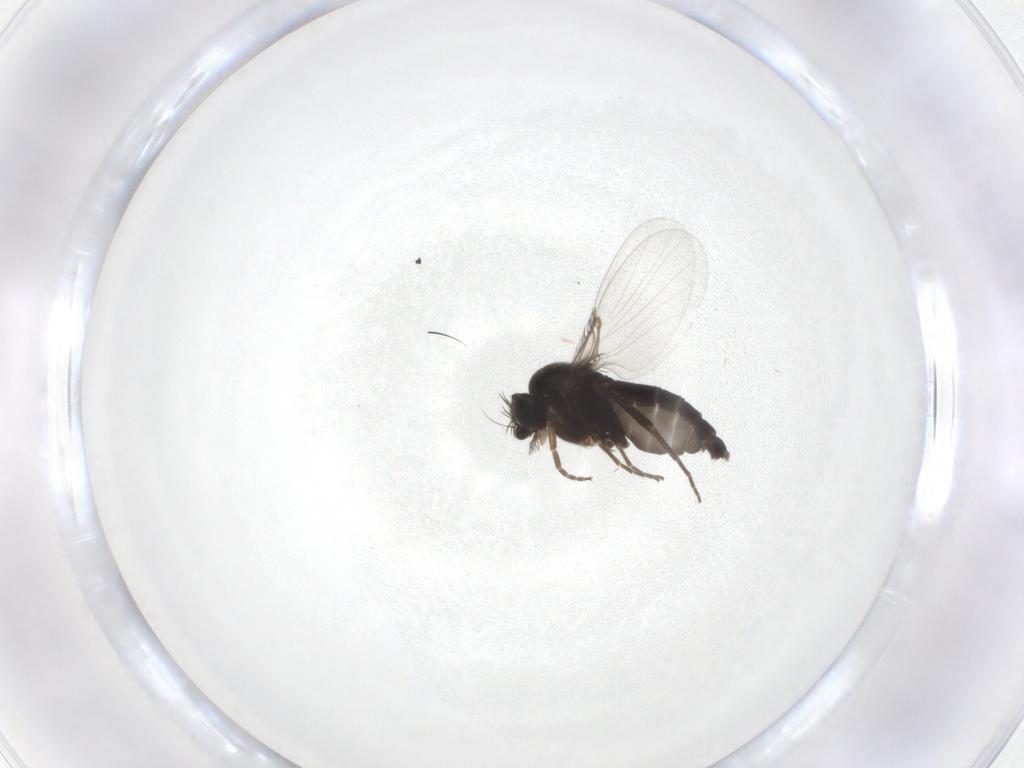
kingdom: Animalia
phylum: Arthropoda
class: Insecta
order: Diptera
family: Phoridae
